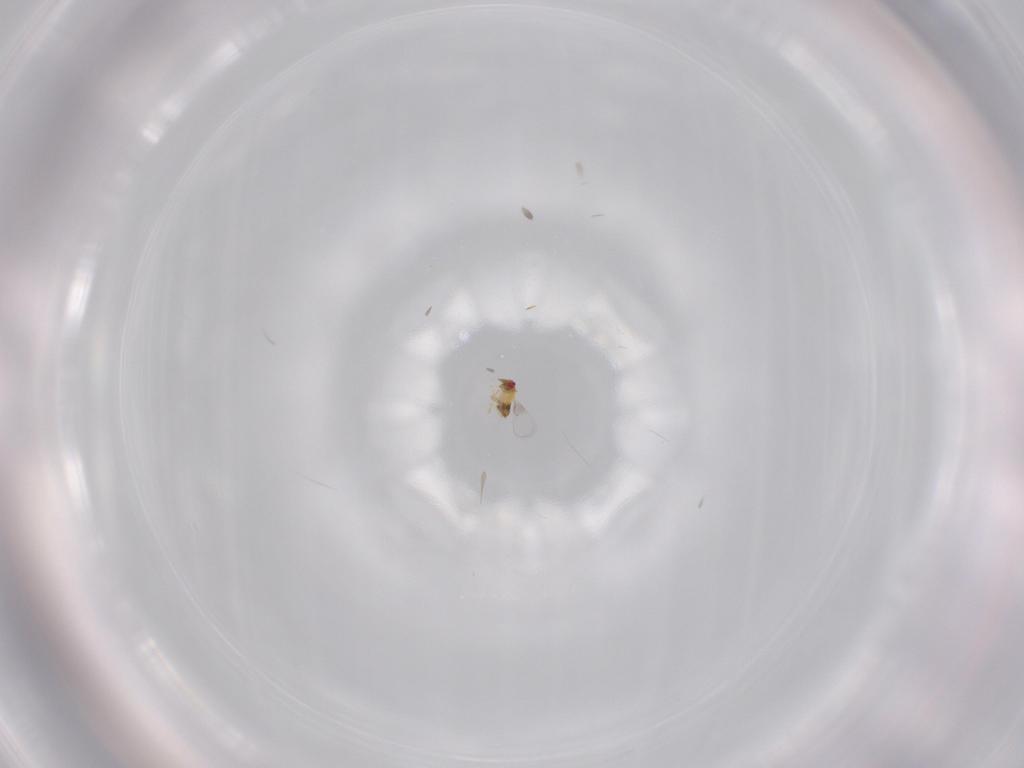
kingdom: Animalia
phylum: Arthropoda
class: Insecta
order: Hymenoptera
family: Trichogrammatidae
